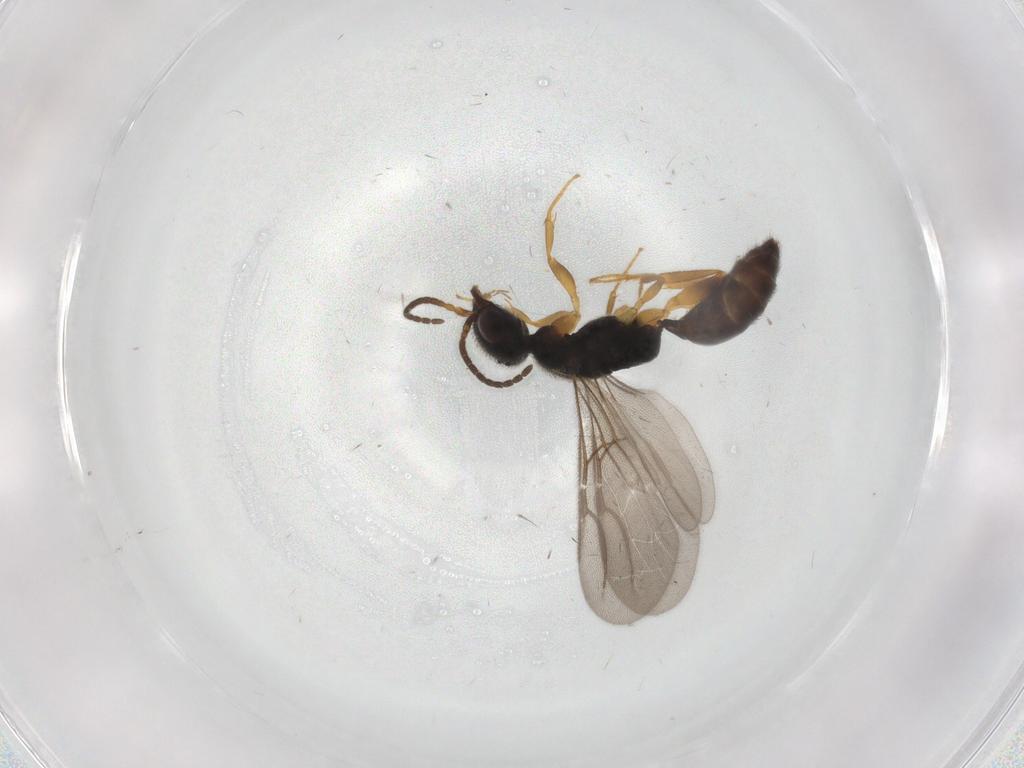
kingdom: Animalia
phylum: Arthropoda
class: Insecta
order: Hymenoptera
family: Bethylidae
